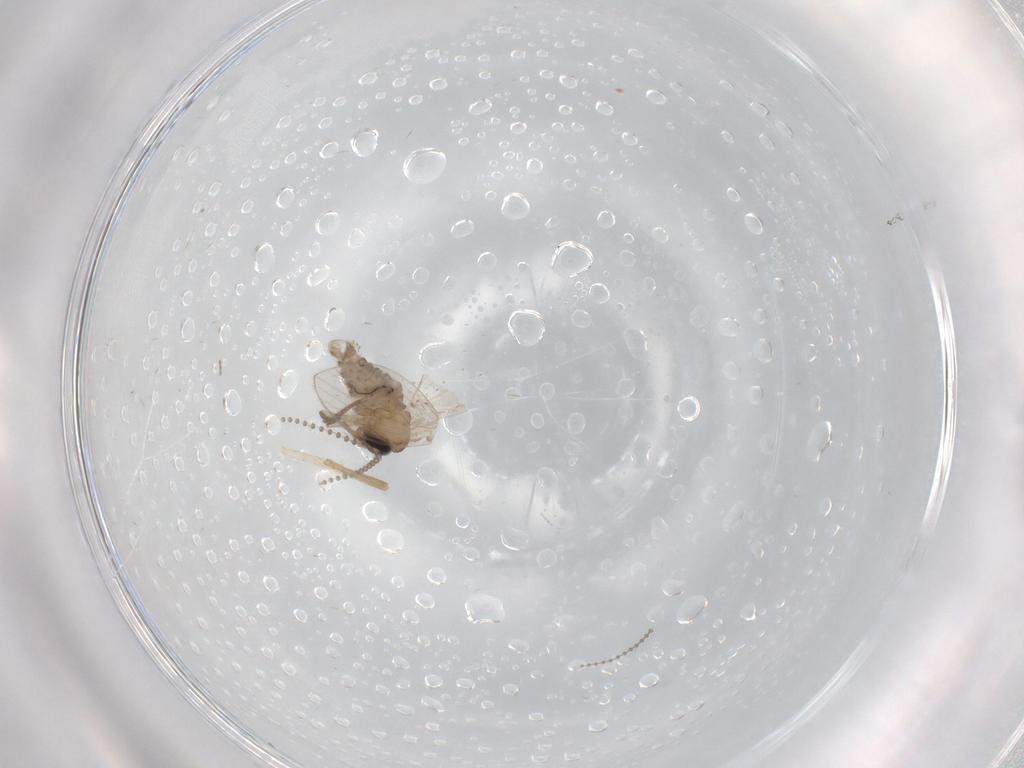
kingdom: Animalia
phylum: Arthropoda
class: Insecta
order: Diptera
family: Psychodidae
